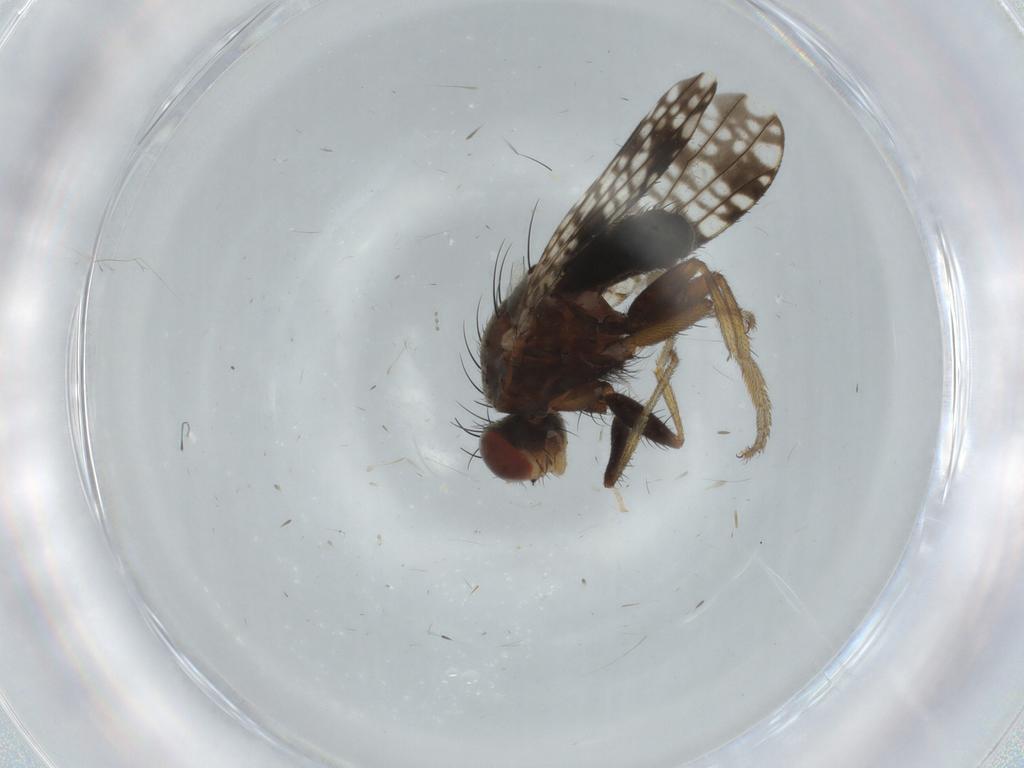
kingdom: Animalia
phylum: Arthropoda
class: Insecta
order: Diptera
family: Tephritidae
